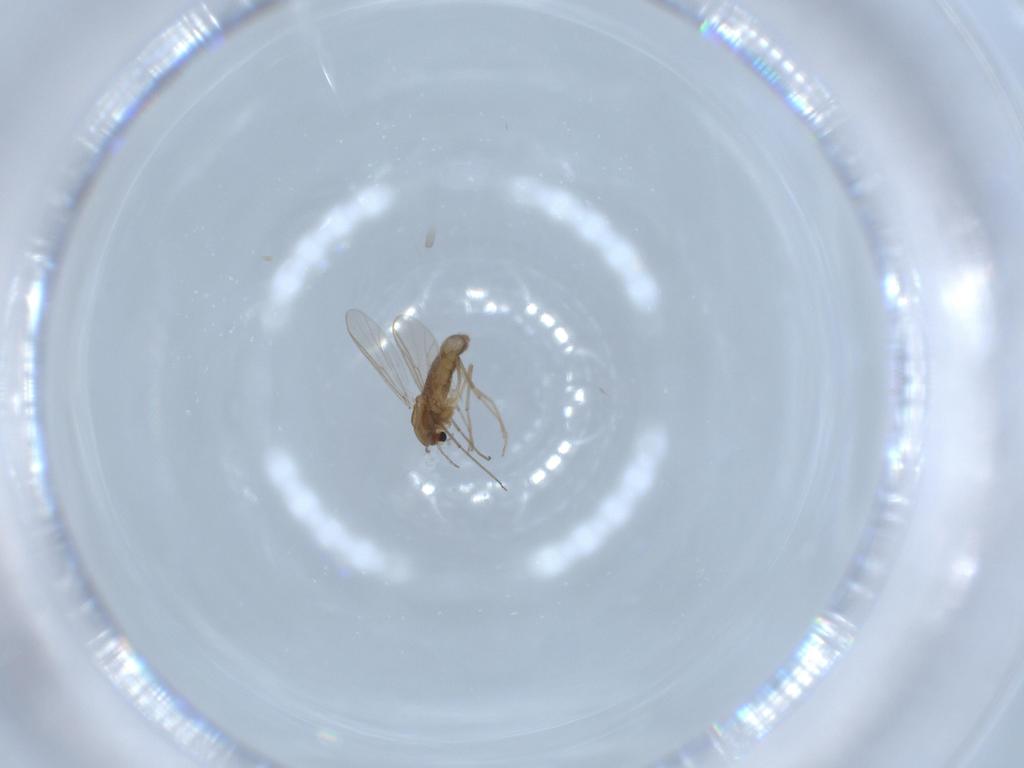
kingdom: Animalia
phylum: Arthropoda
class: Insecta
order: Diptera
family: Chironomidae
